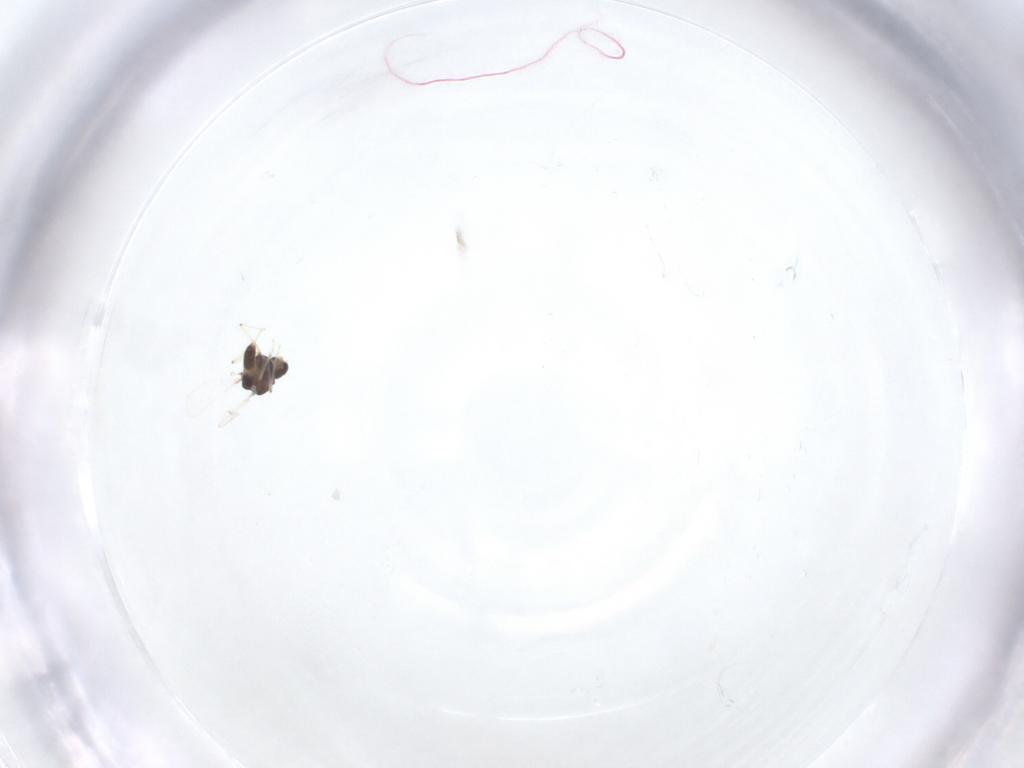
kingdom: Animalia
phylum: Arthropoda
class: Insecta
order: Diptera
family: Chironomidae
